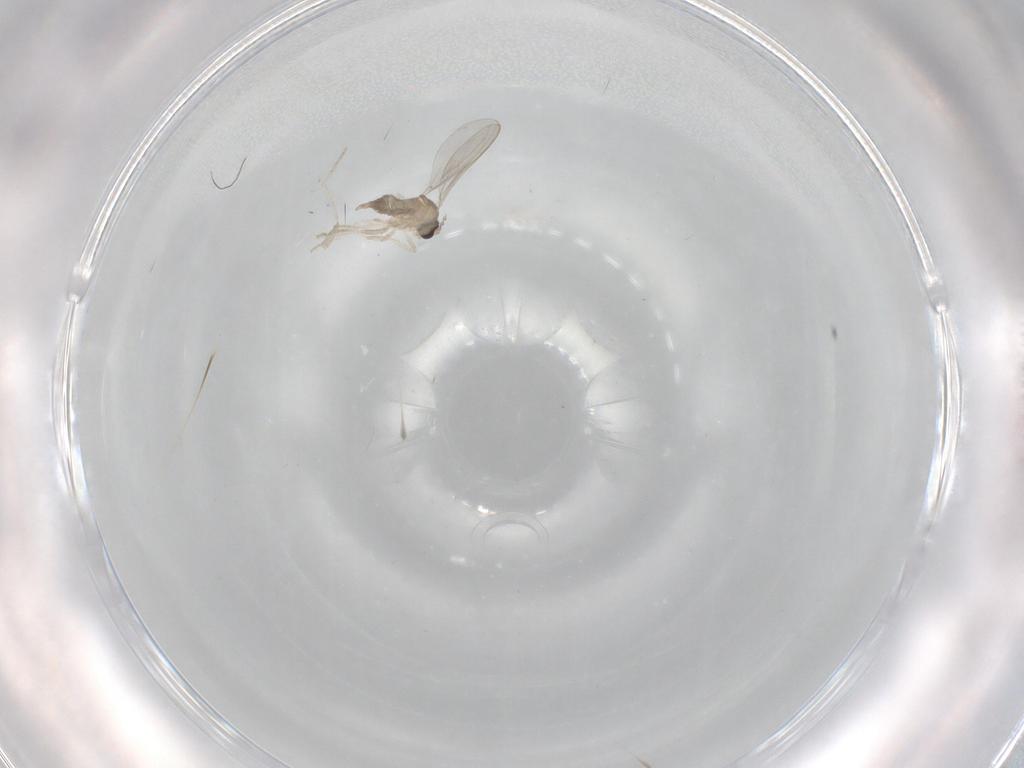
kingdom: Animalia
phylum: Arthropoda
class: Insecta
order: Diptera
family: Cecidomyiidae
